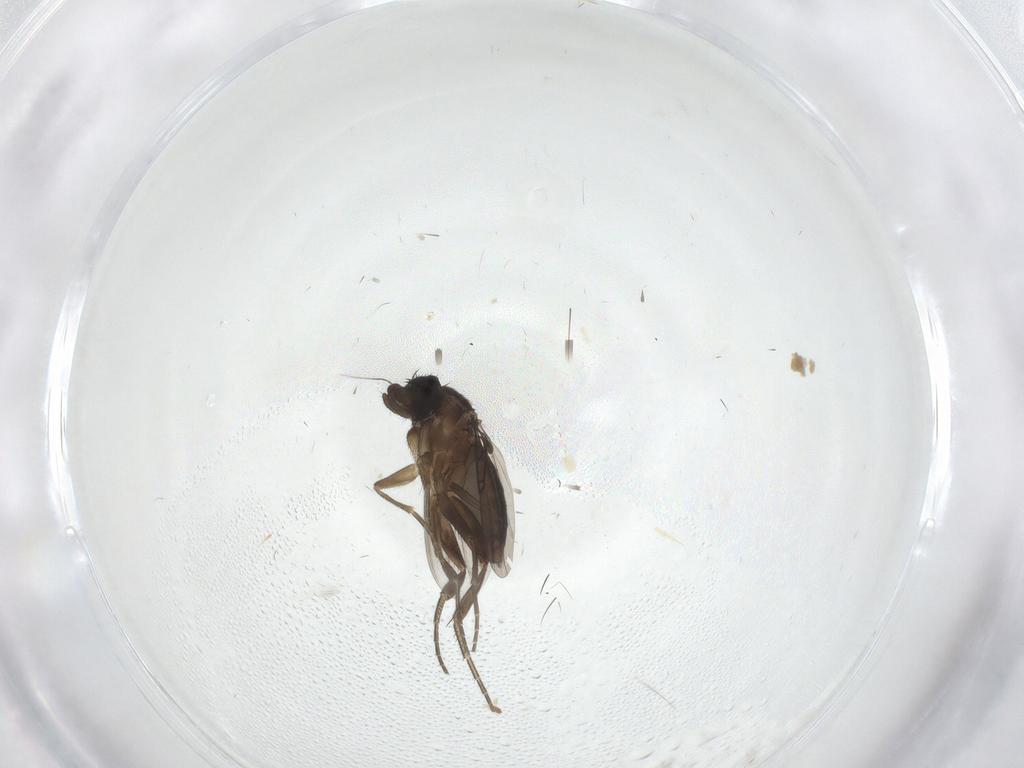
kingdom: Animalia
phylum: Arthropoda
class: Insecta
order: Diptera
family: Phoridae
